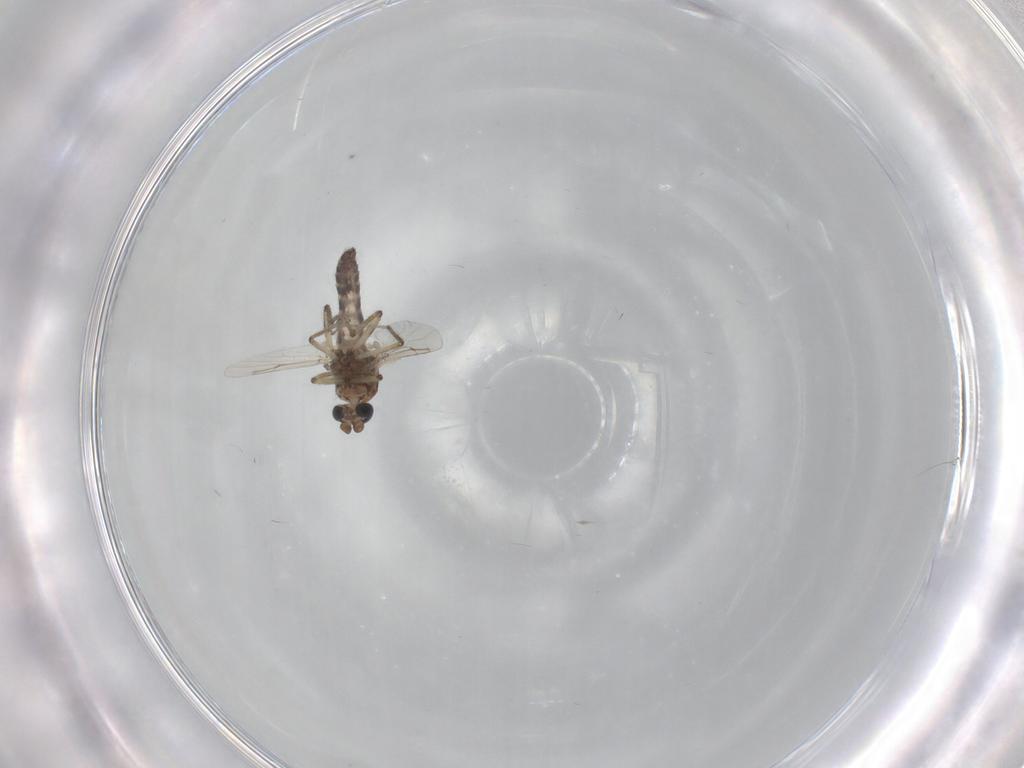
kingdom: Animalia
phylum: Arthropoda
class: Insecta
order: Diptera
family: Ceratopogonidae
